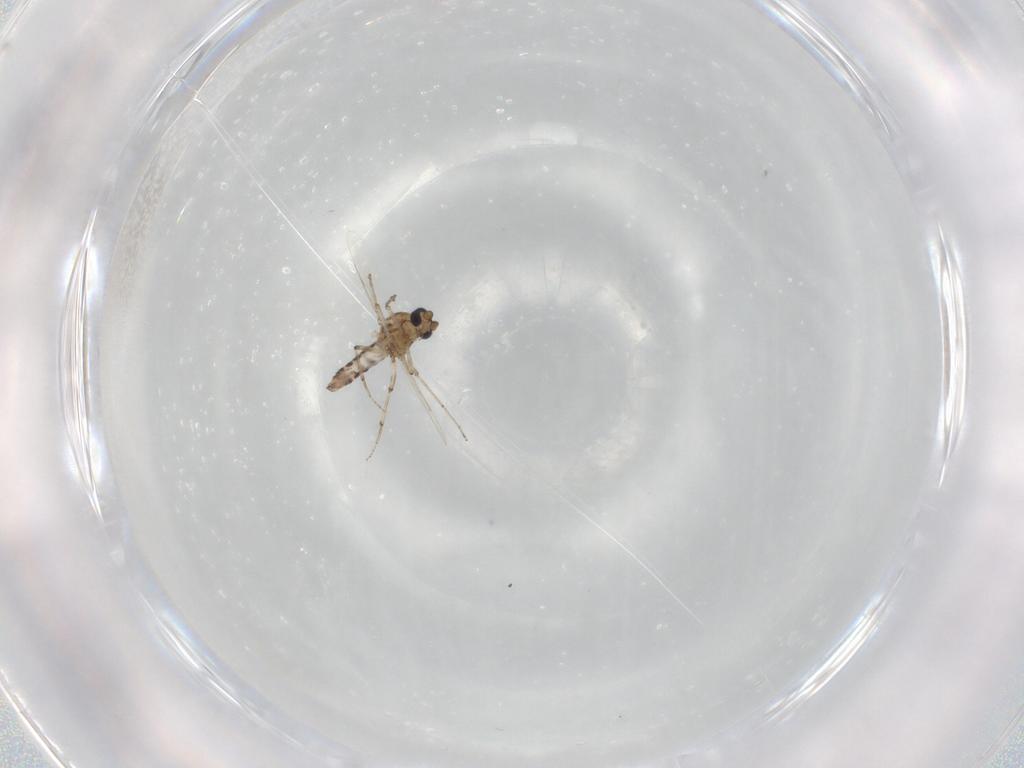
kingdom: Animalia
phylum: Arthropoda
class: Insecta
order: Diptera
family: Ceratopogonidae
